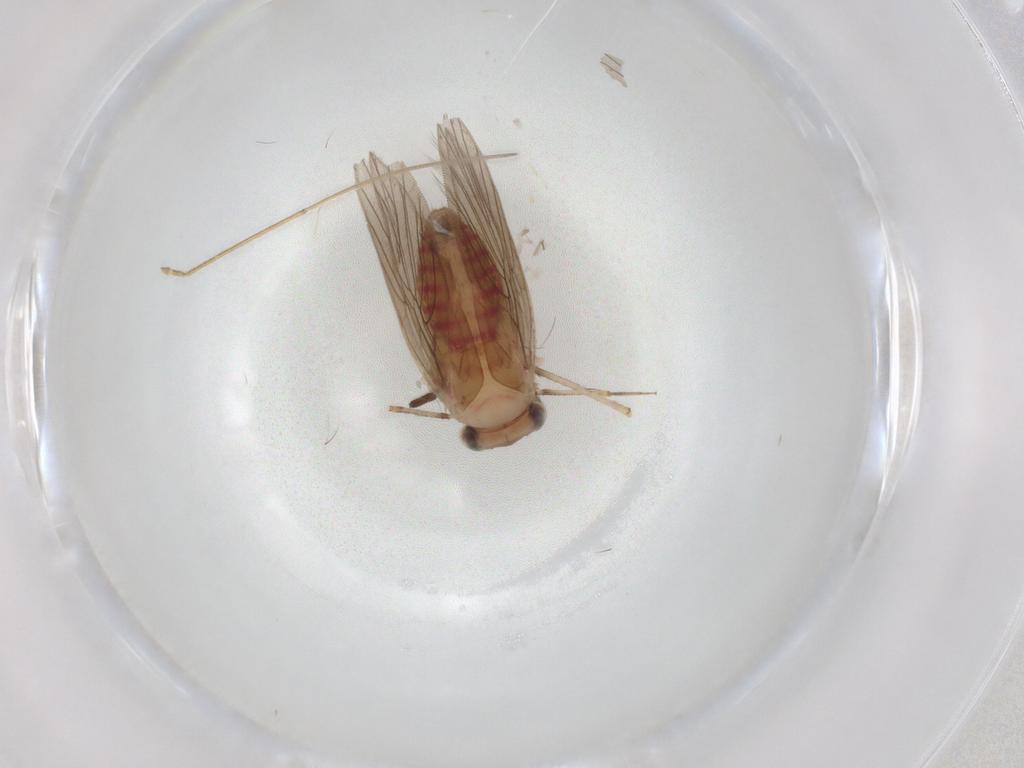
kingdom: Animalia
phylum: Arthropoda
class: Insecta
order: Psocodea
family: Lepidopsocidae
